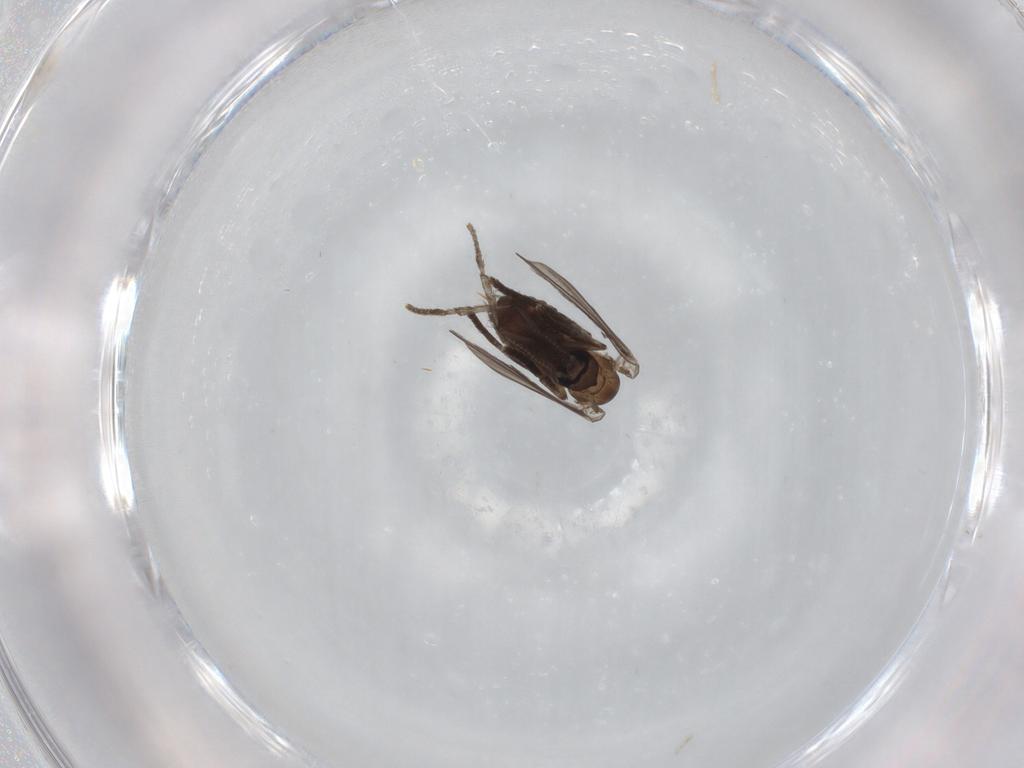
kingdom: Animalia
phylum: Arthropoda
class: Insecta
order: Diptera
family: Psychodidae
